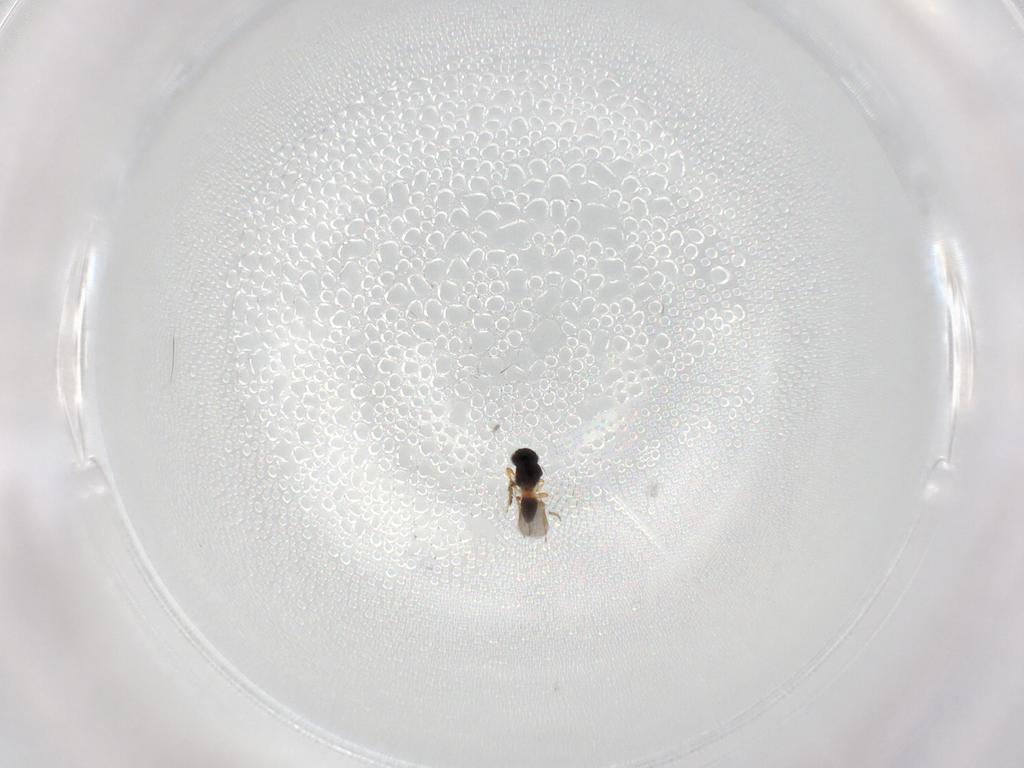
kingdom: Animalia
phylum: Arthropoda
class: Insecta
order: Hymenoptera
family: Platygastridae
